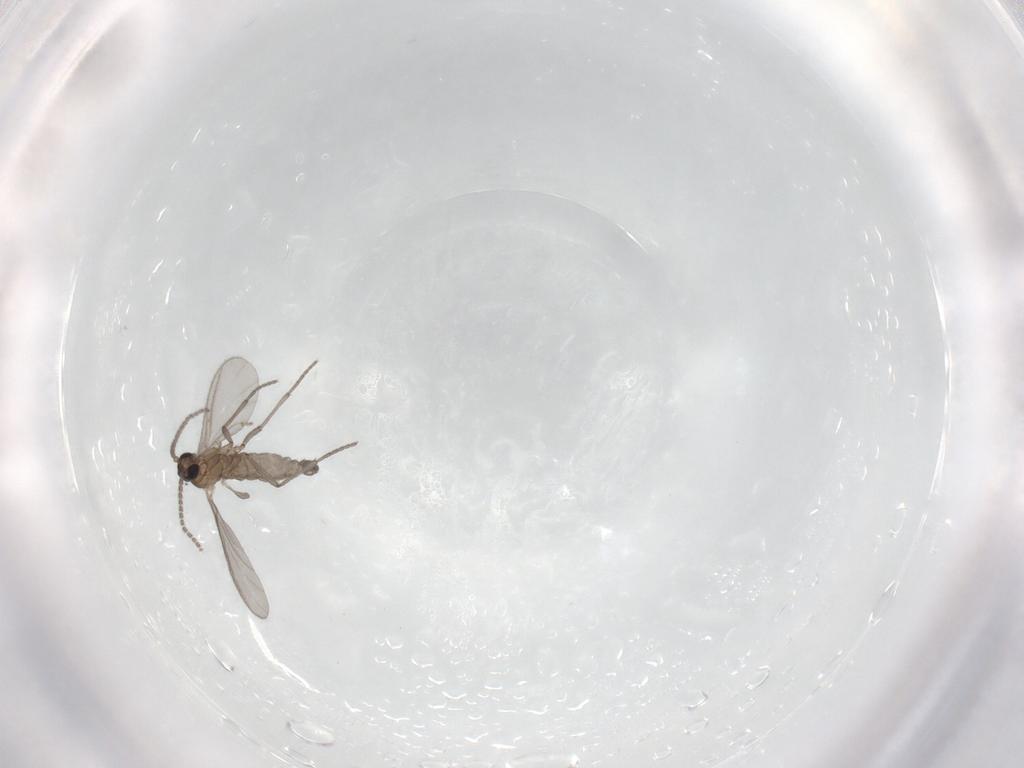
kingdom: Animalia
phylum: Arthropoda
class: Insecta
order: Diptera
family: Sciaridae
